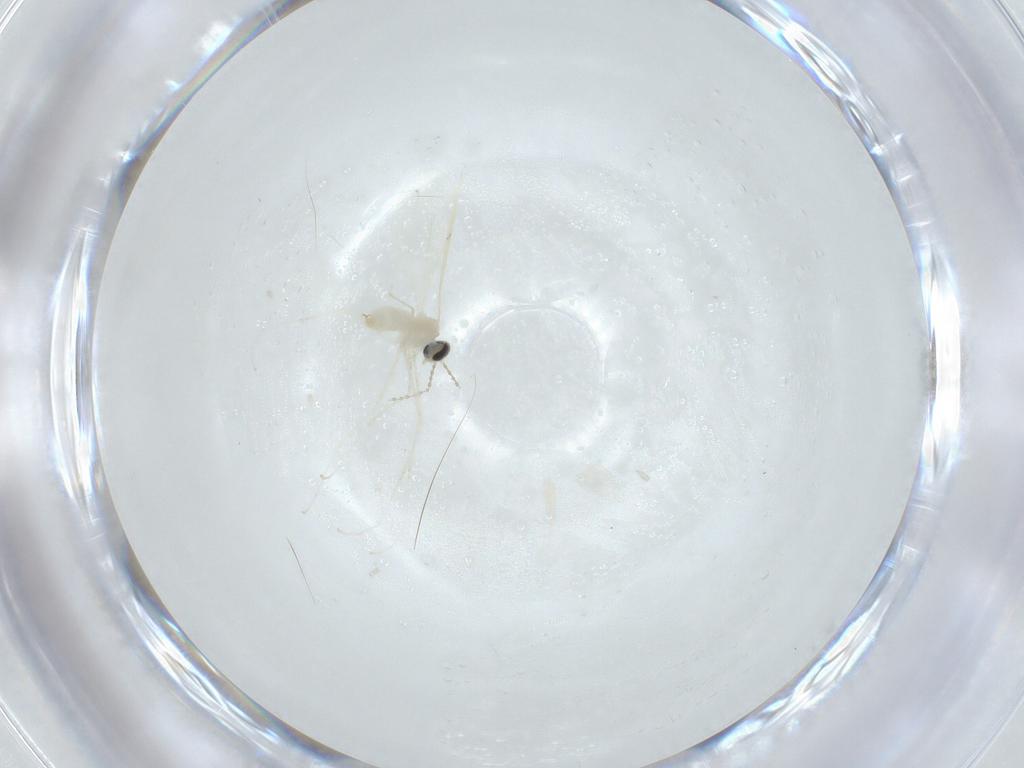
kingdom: Animalia
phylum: Arthropoda
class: Insecta
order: Diptera
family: Cecidomyiidae
